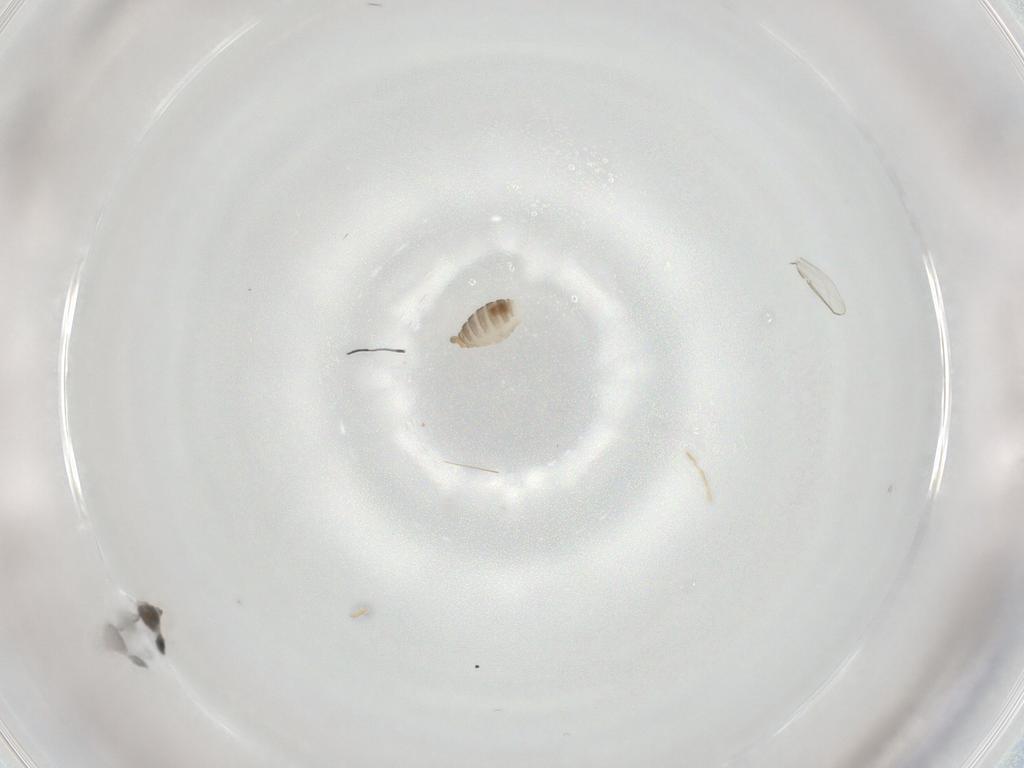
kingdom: Animalia
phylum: Arthropoda
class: Insecta
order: Diptera
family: Cecidomyiidae
